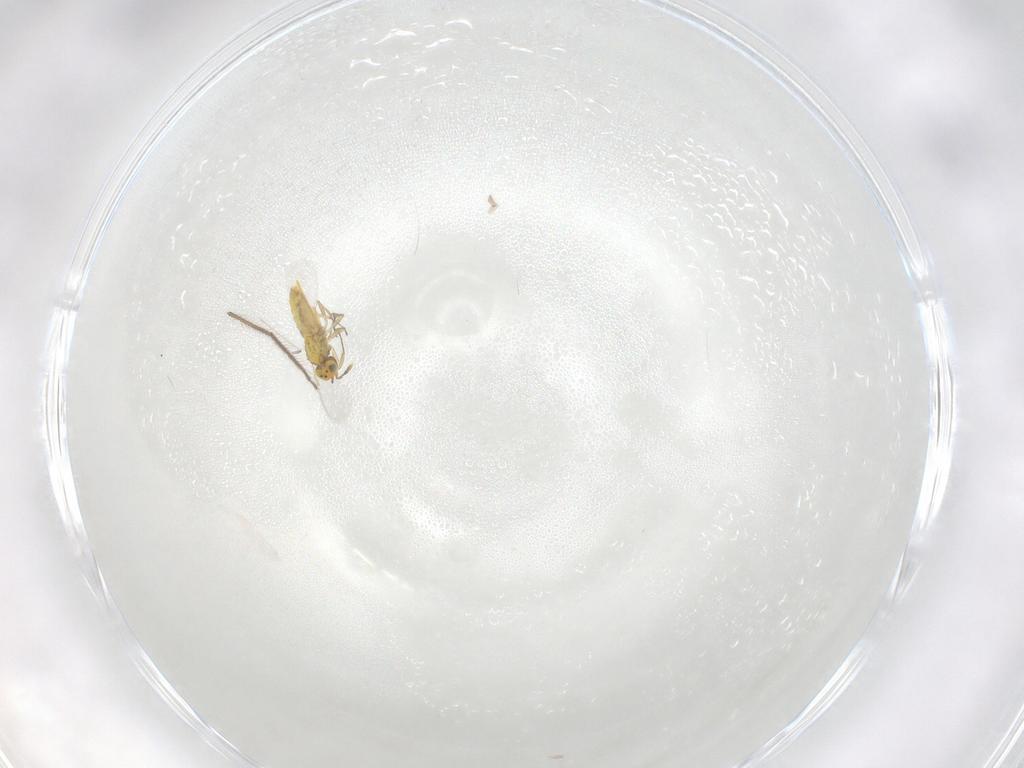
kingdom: Animalia
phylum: Arthropoda
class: Insecta
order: Hymenoptera
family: Aphelinidae
